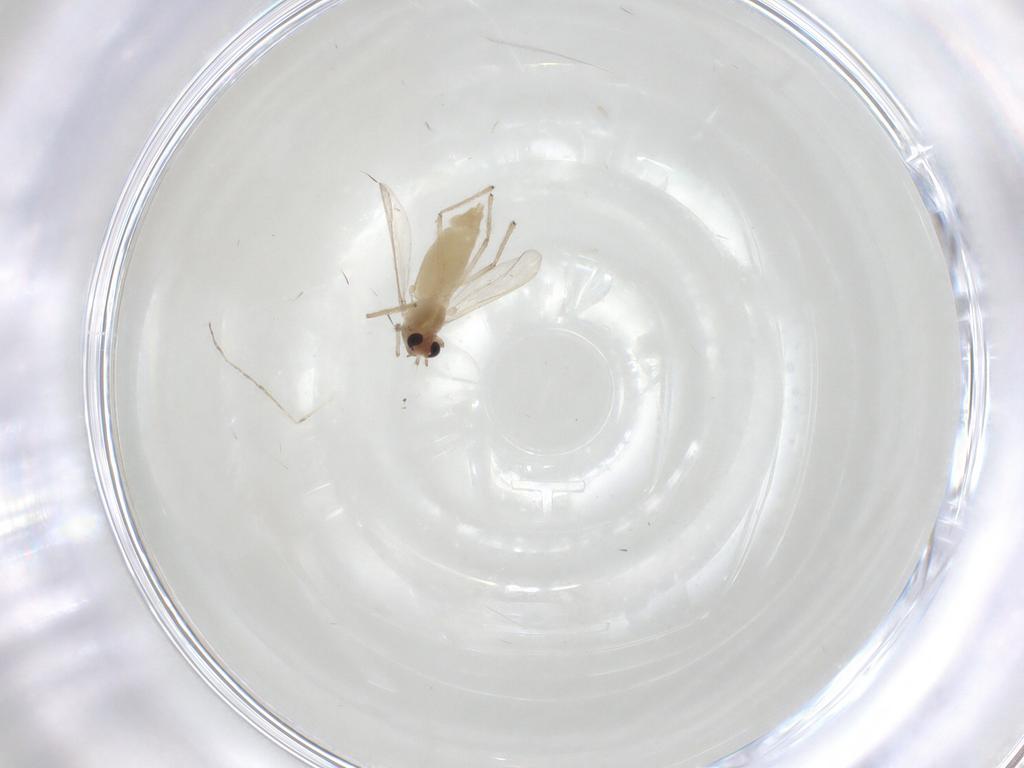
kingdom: Animalia
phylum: Arthropoda
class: Insecta
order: Diptera
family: Chironomidae
